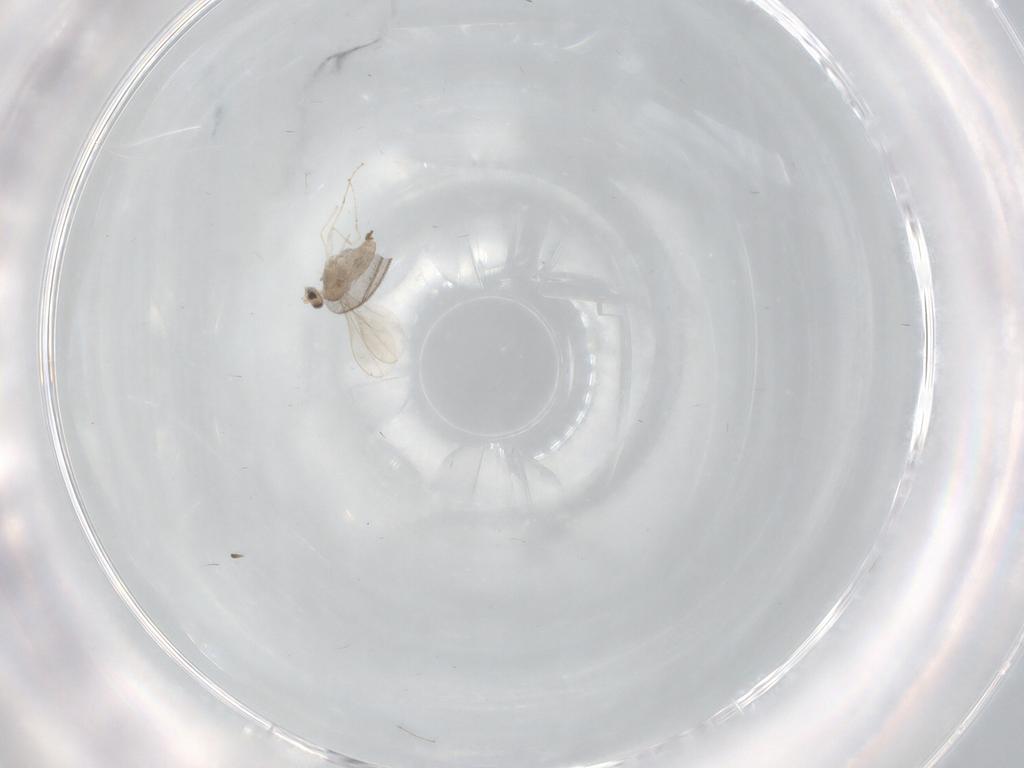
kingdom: Animalia
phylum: Arthropoda
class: Insecta
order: Diptera
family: Cecidomyiidae
